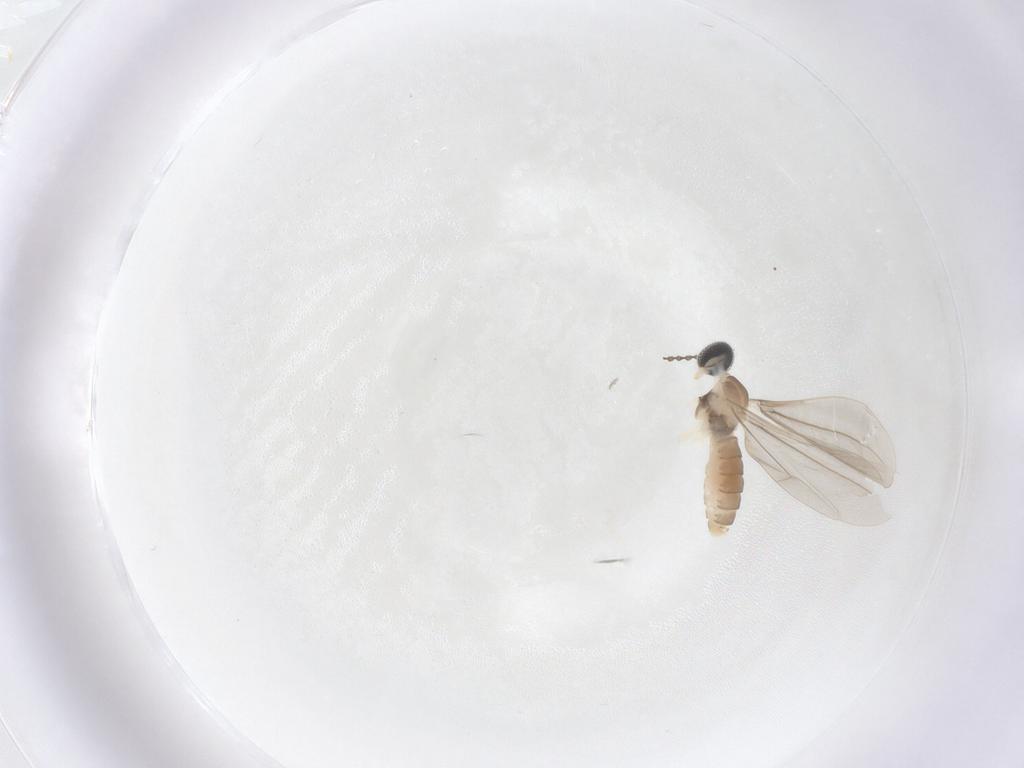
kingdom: Animalia
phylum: Arthropoda
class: Insecta
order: Diptera
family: Cecidomyiidae
